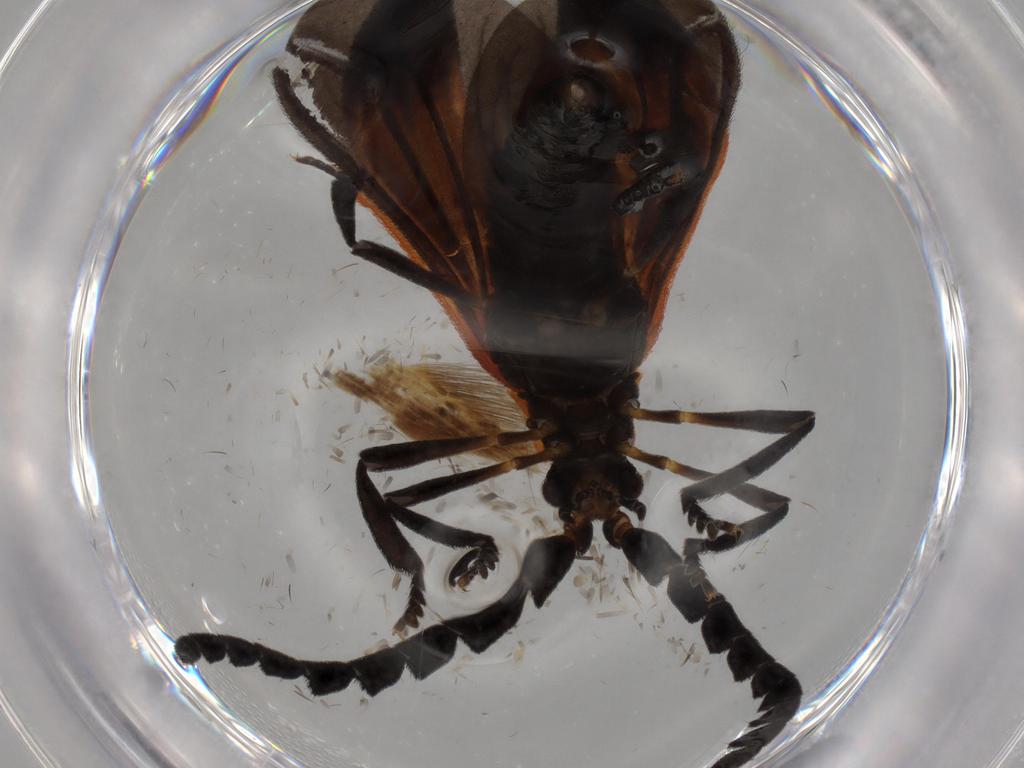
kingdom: Animalia
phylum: Arthropoda
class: Insecta
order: Coleoptera
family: Lycidae
